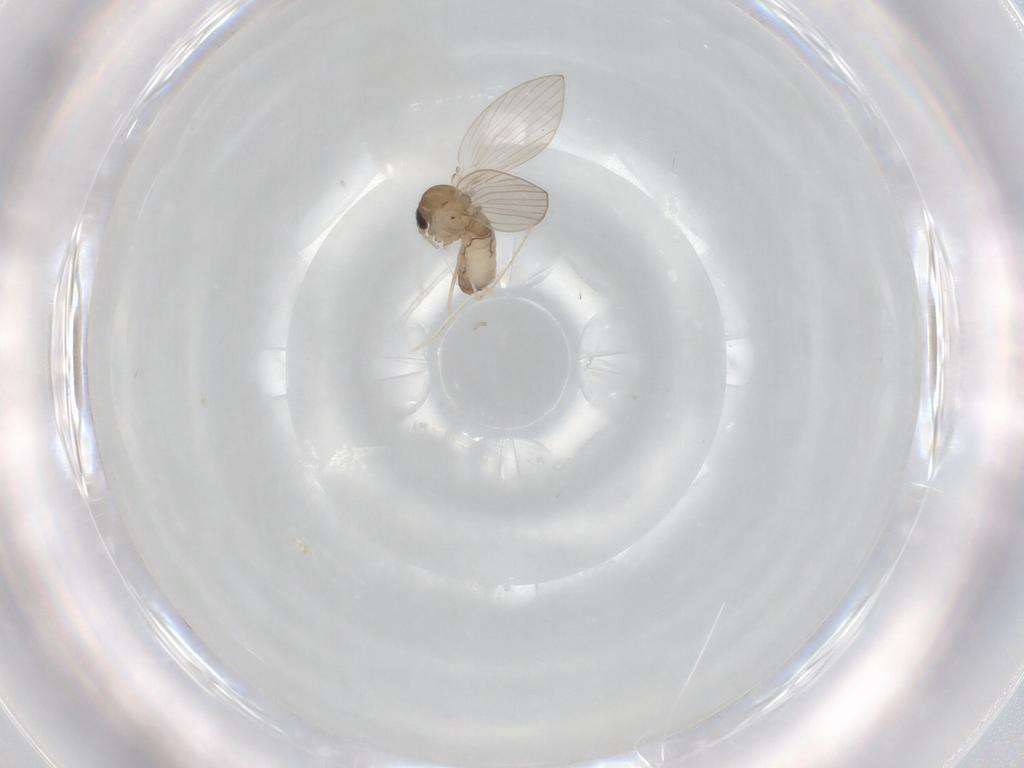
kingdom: Animalia
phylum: Arthropoda
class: Insecta
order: Diptera
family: Psychodidae
